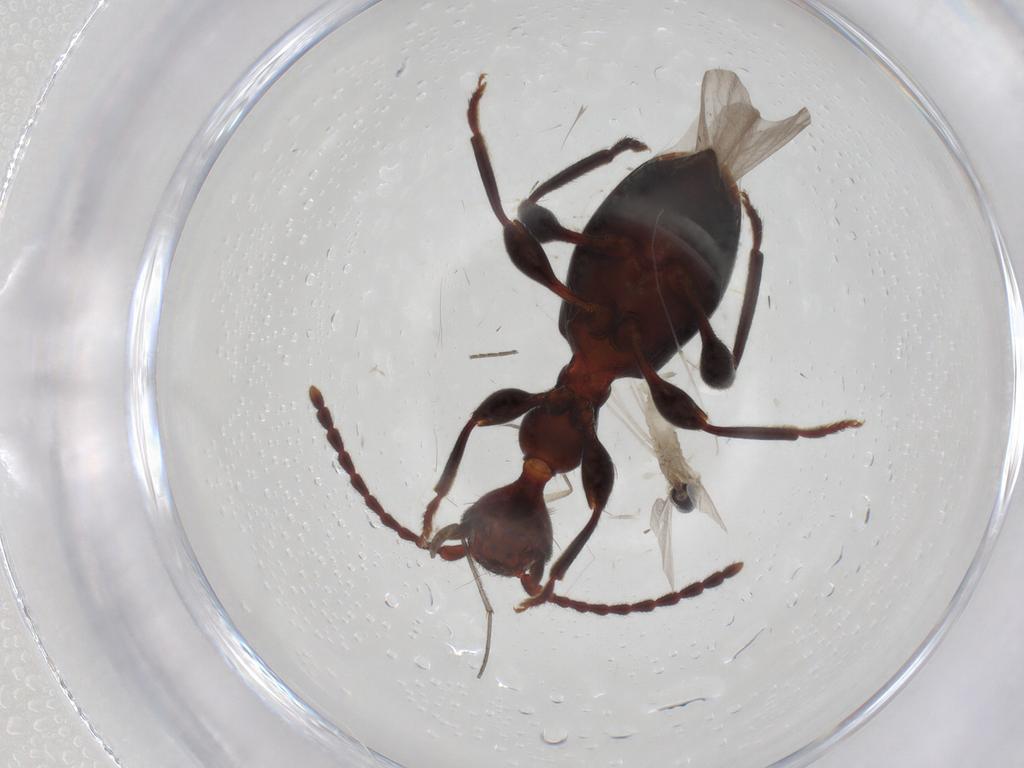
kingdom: Animalia
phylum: Arthropoda
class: Insecta
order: Coleoptera
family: Anthicidae
